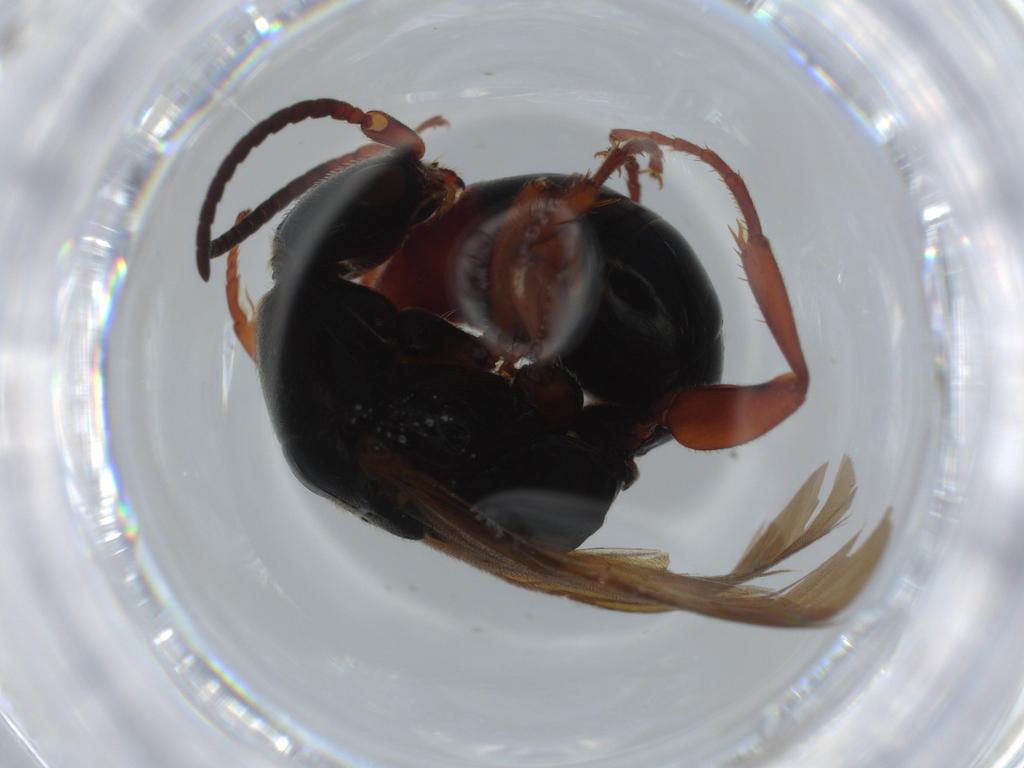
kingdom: Animalia
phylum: Arthropoda
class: Insecta
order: Hymenoptera
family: Bethylidae
